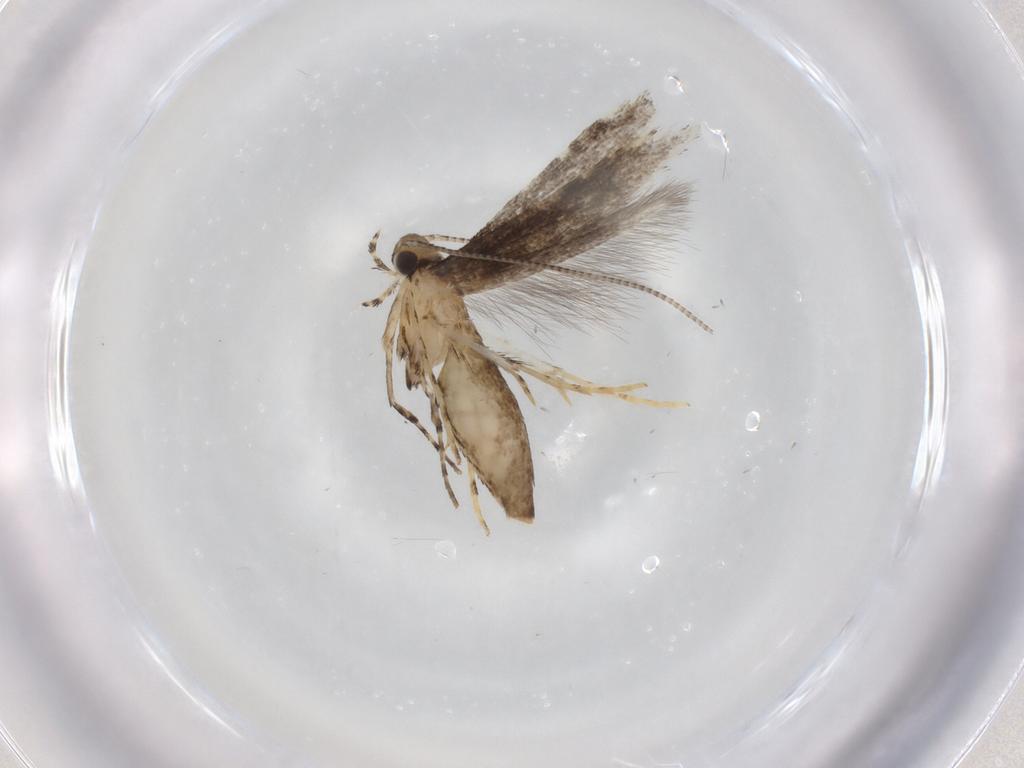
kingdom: Animalia
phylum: Arthropoda
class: Insecta
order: Lepidoptera
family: Gracillariidae
